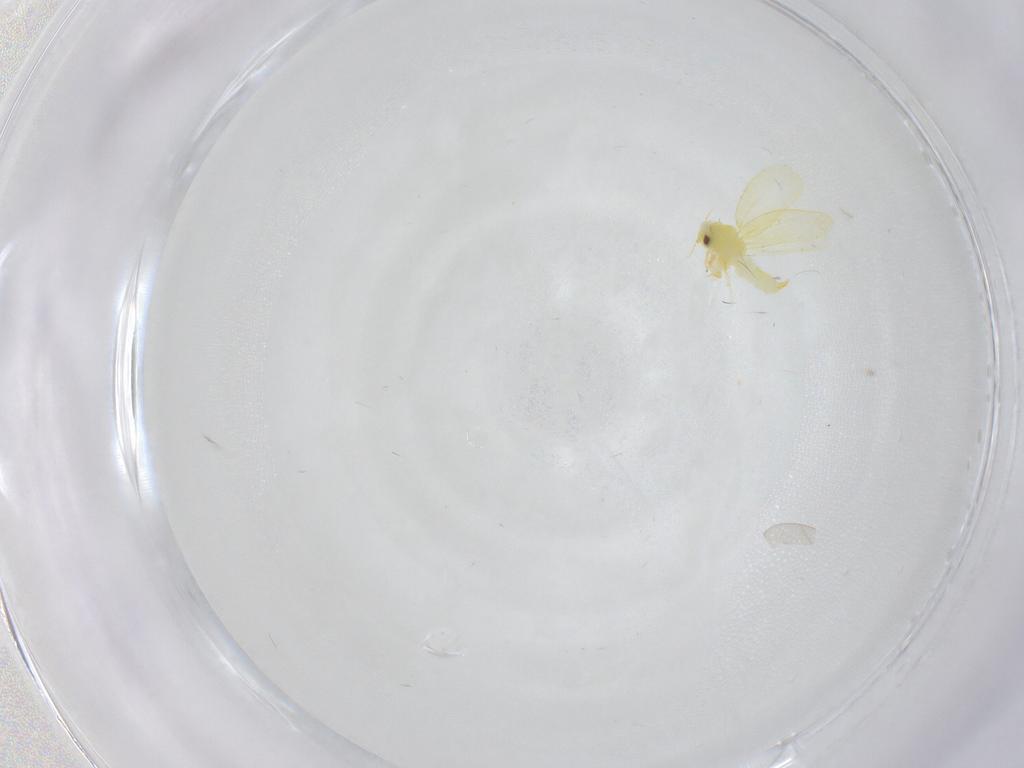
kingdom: Animalia
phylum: Arthropoda
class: Insecta
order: Hemiptera
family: Aleyrodidae
